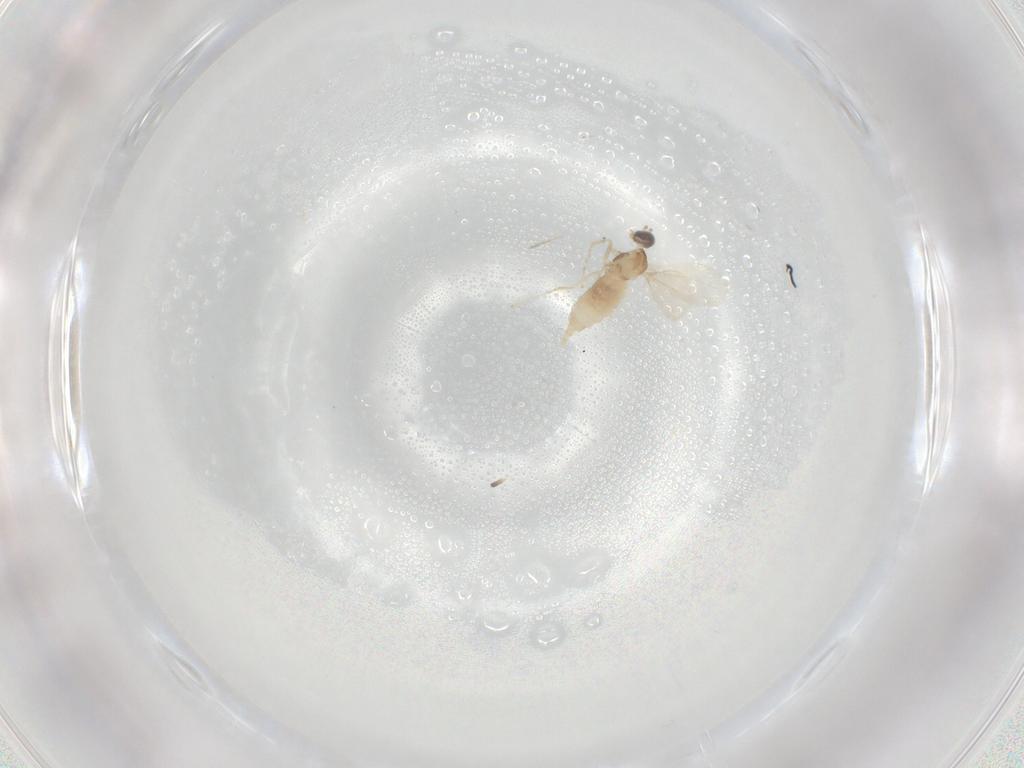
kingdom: Animalia
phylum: Arthropoda
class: Insecta
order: Diptera
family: Cecidomyiidae
